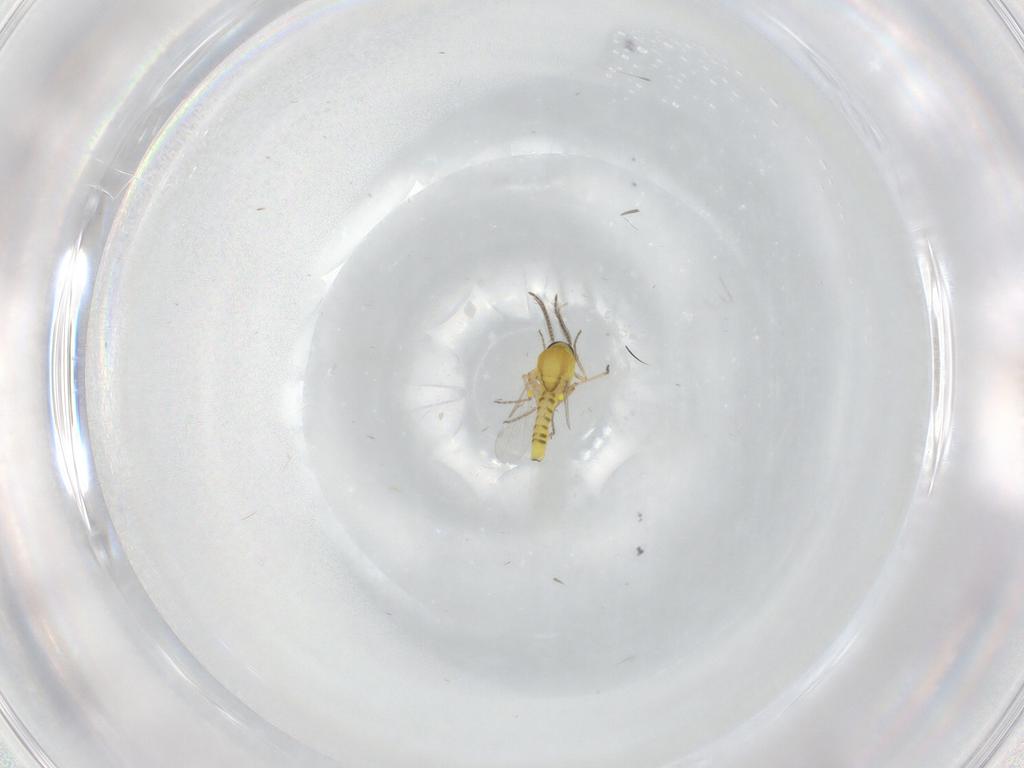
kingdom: Animalia
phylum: Arthropoda
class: Insecta
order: Diptera
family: Ceratopogonidae
